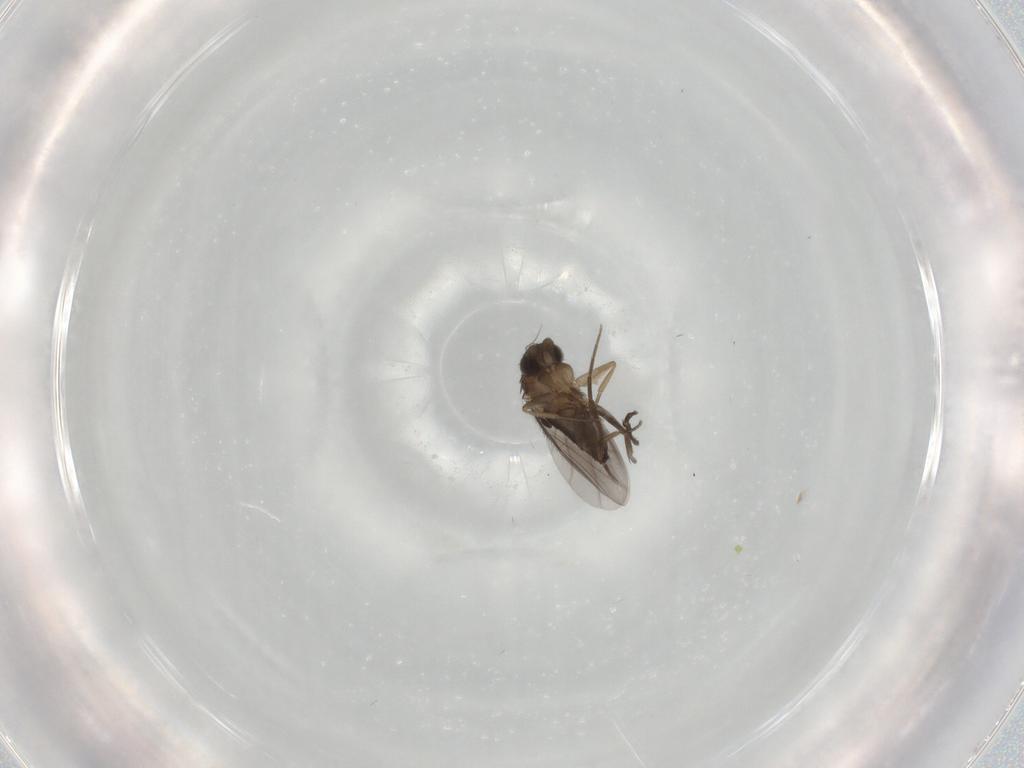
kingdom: Animalia
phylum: Arthropoda
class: Insecta
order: Diptera
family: Phoridae
